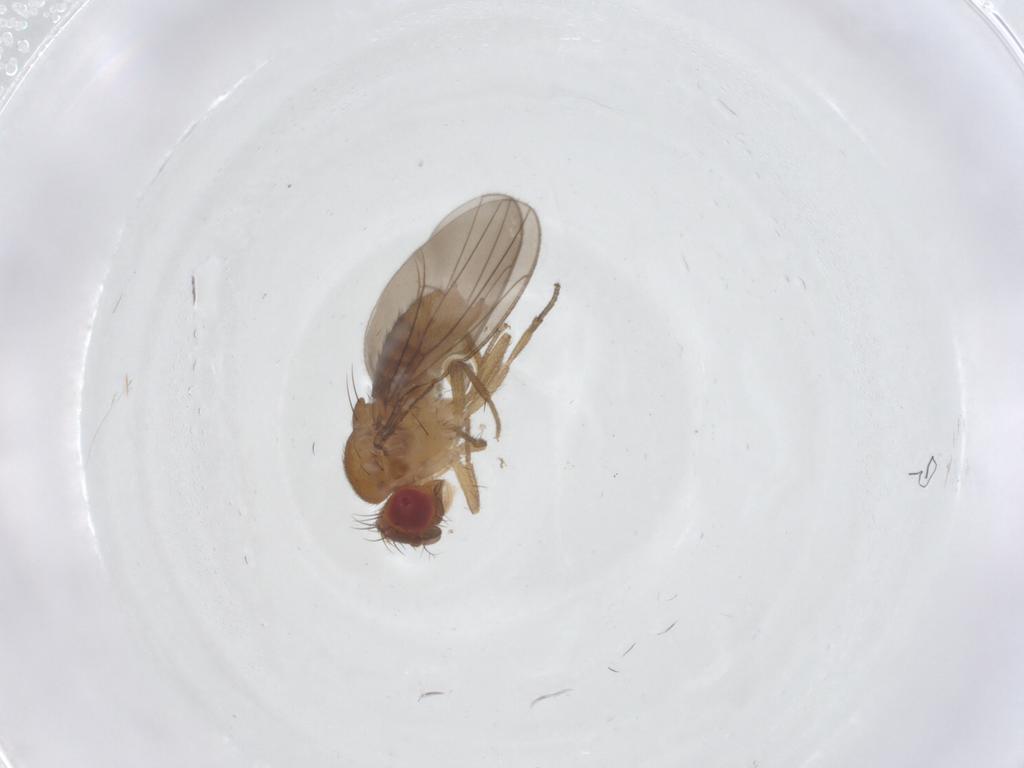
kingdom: Animalia
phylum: Arthropoda
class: Insecta
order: Diptera
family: Drosophilidae
